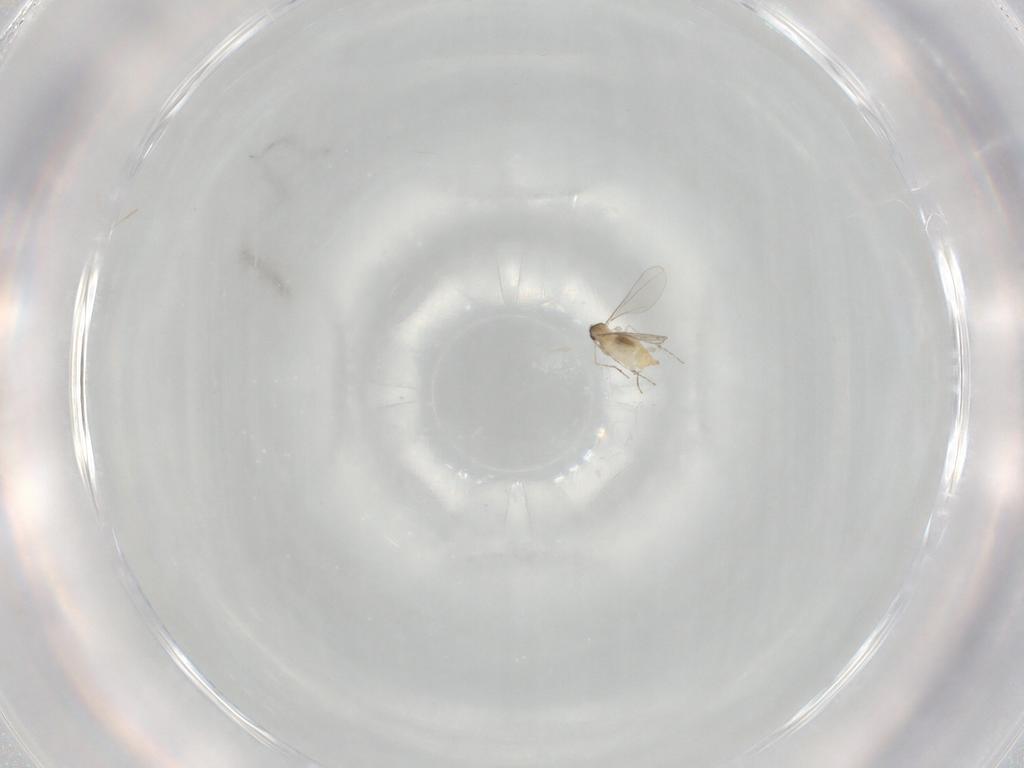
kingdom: Animalia
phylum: Arthropoda
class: Insecta
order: Diptera
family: Cecidomyiidae
